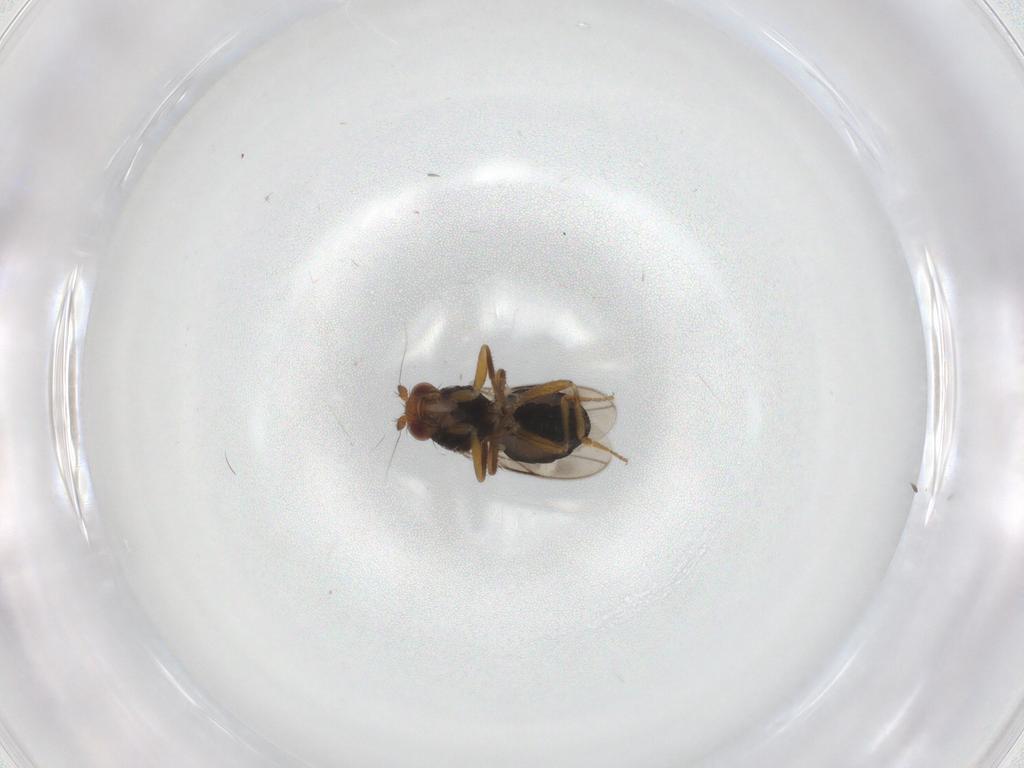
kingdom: Animalia
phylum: Arthropoda
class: Insecta
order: Diptera
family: Sphaeroceridae
